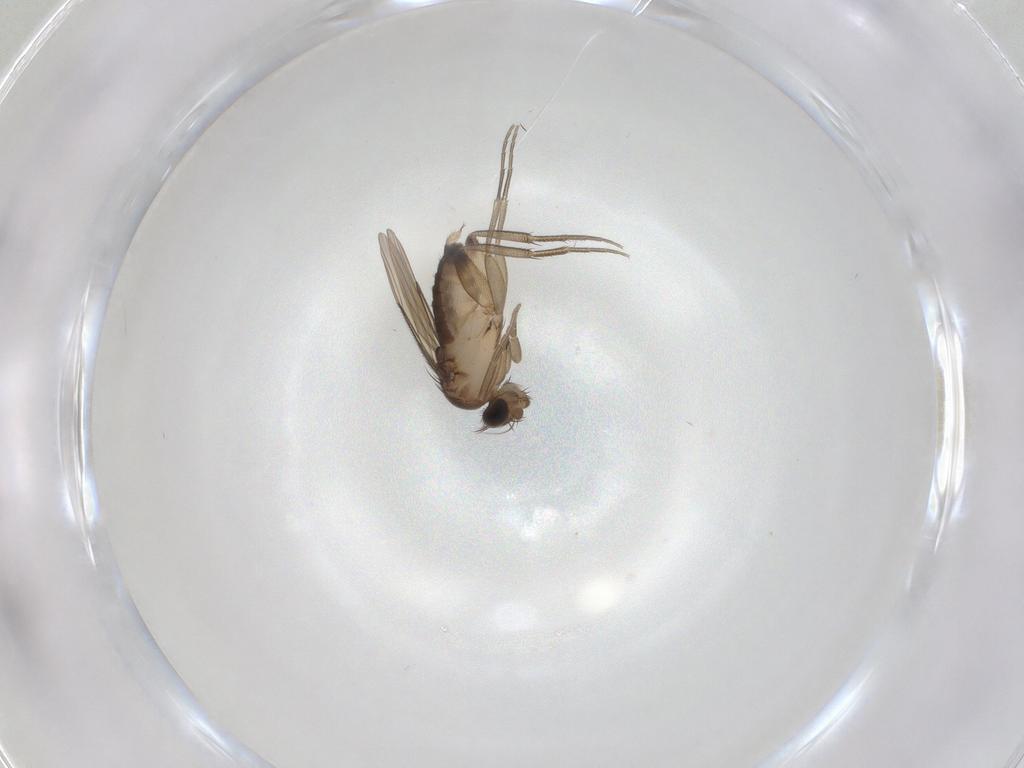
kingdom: Animalia
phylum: Arthropoda
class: Insecta
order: Diptera
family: Phoridae
